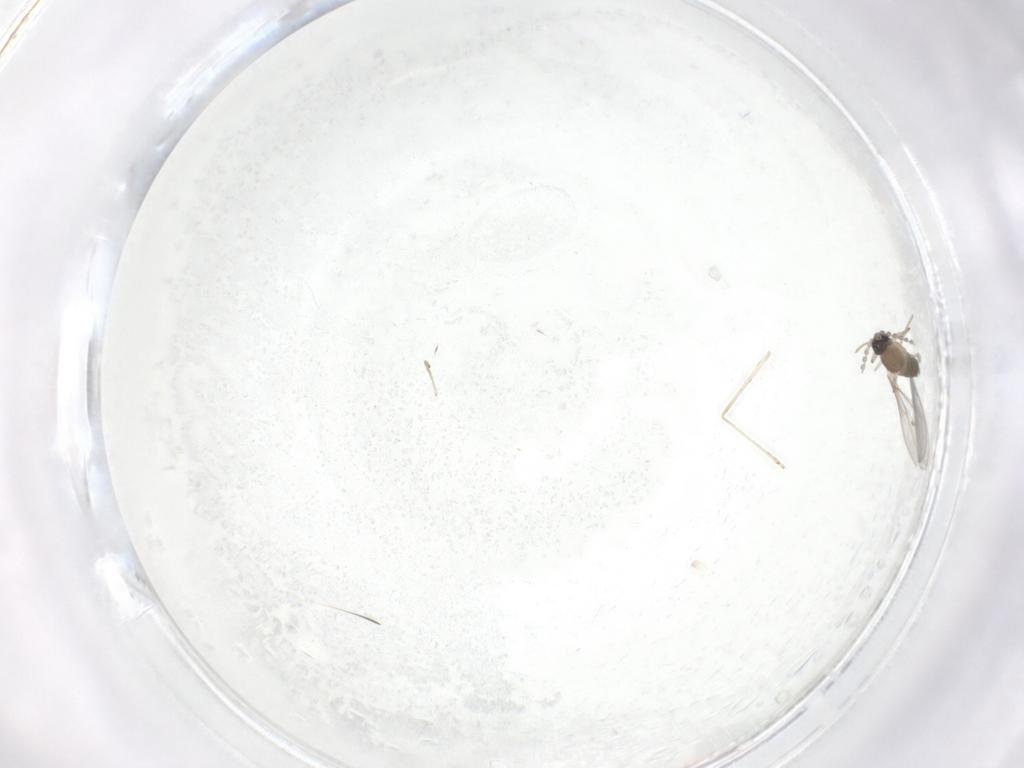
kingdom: Animalia
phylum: Arthropoda
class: Insecta
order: Diptera
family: Cecidomyiidae
